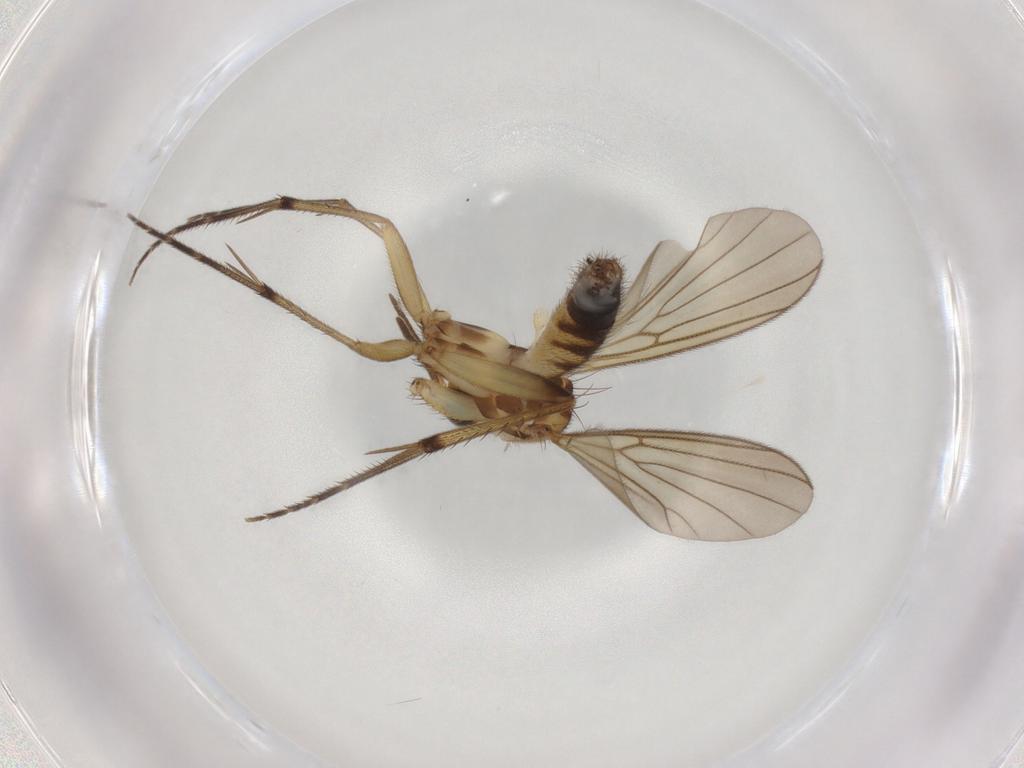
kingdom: Animalia
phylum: Arthropoda
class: Insecta
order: Diptera
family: Sciaridae
